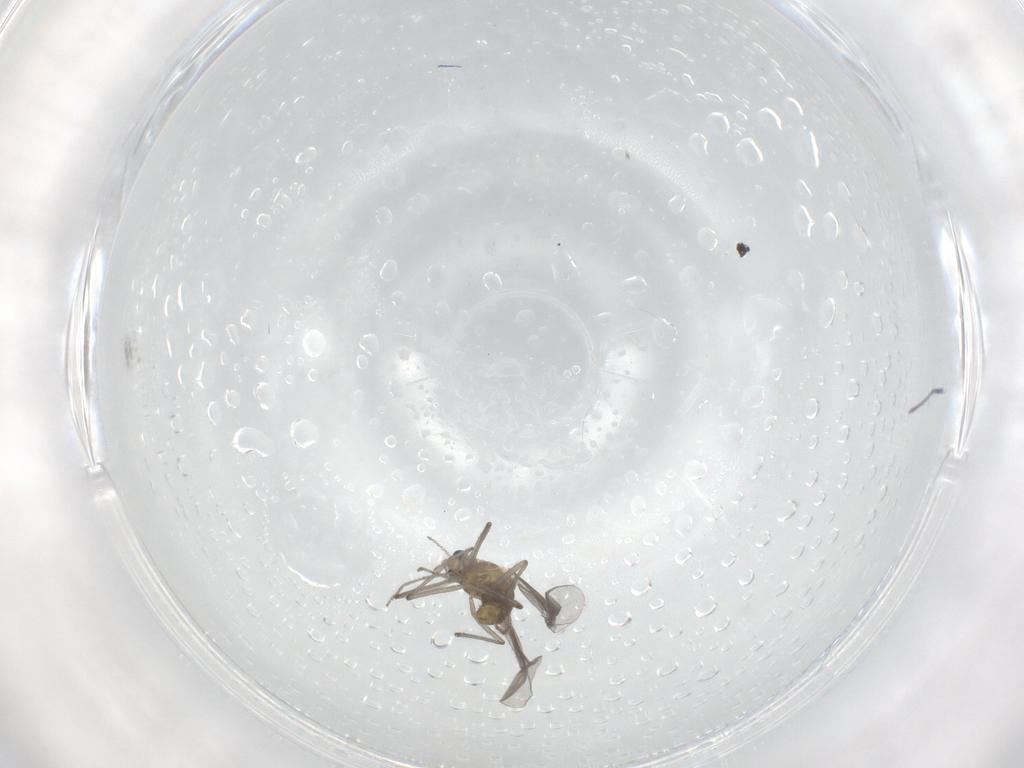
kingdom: Animalia
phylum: Arthropoda
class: Insecta
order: Diptera
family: Chironomidae
